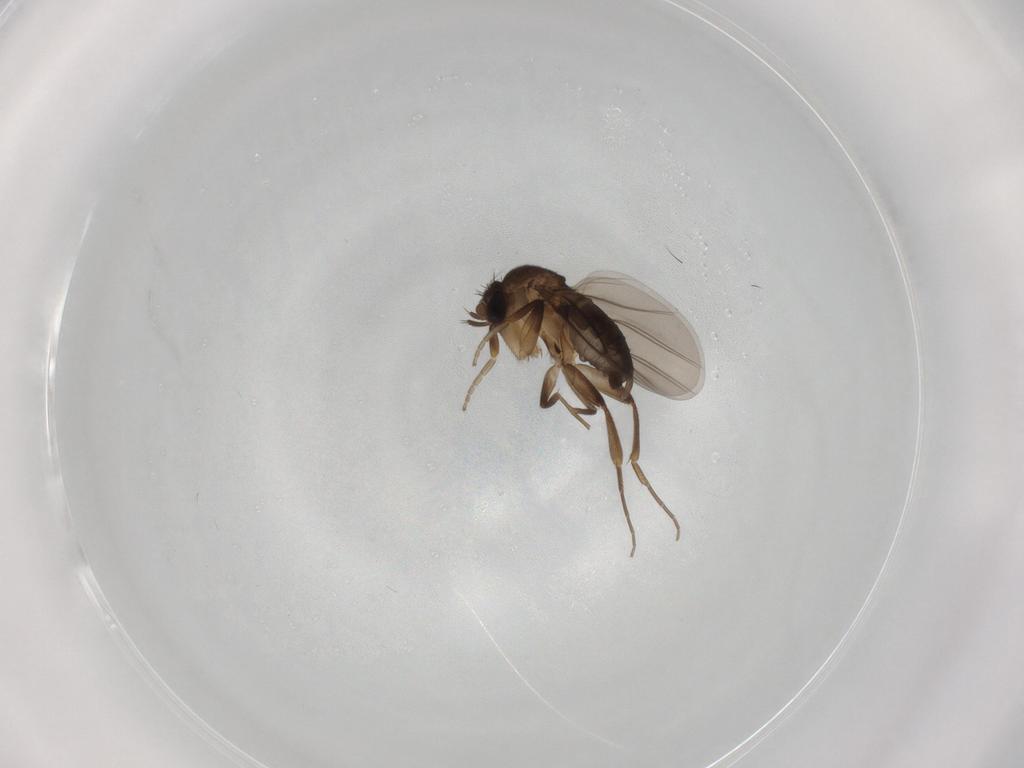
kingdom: Animalia
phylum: Arthropoda
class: Insecta
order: Diptera
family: Phoridae
